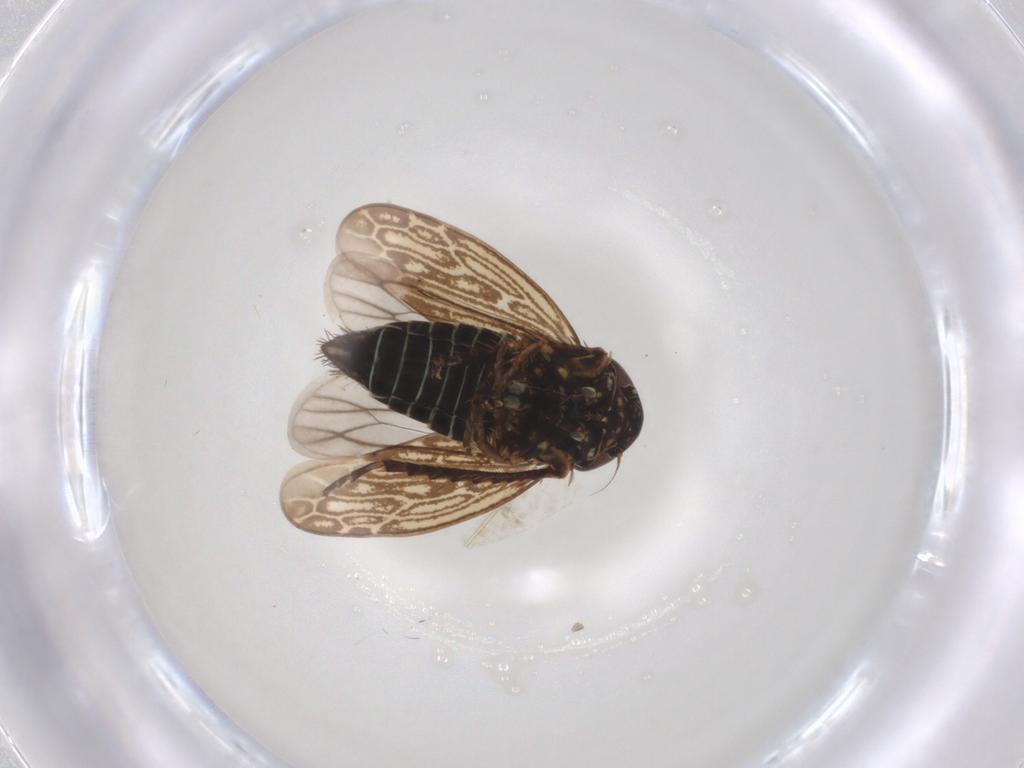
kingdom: Animalia
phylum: Arthropoda
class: Insecta
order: Hemiptera
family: Cicadellidae
